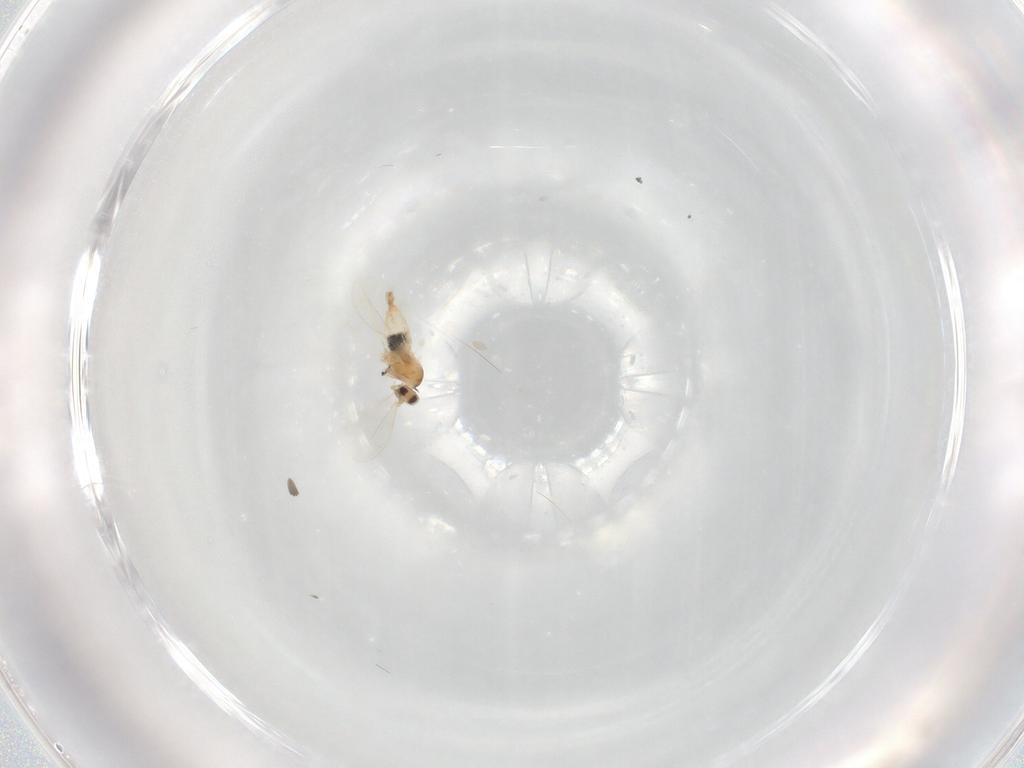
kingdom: Animalia
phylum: Arthropoda
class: Insecta
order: Diptera
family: Cecidomyiidae
